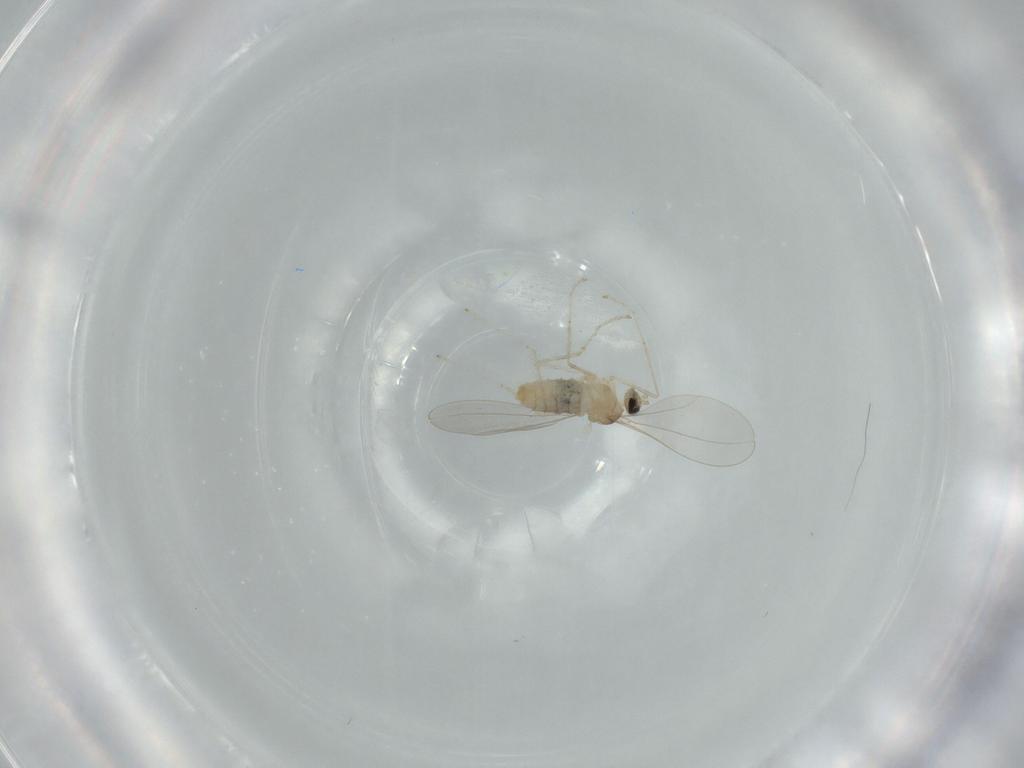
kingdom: Animalia
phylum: Arthropoda
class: Insecta
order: Diptera
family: Cecidomyiidae
